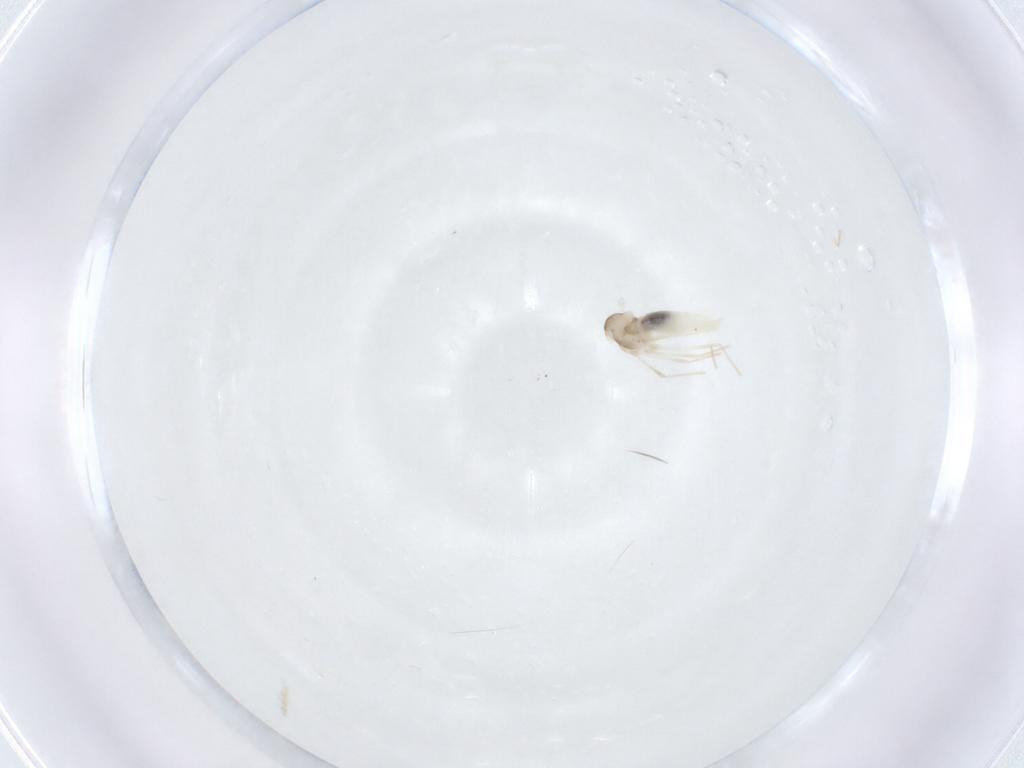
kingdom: Animalia
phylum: Arthropoda
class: Insecta
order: Diptera
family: Cecidomyiidae
